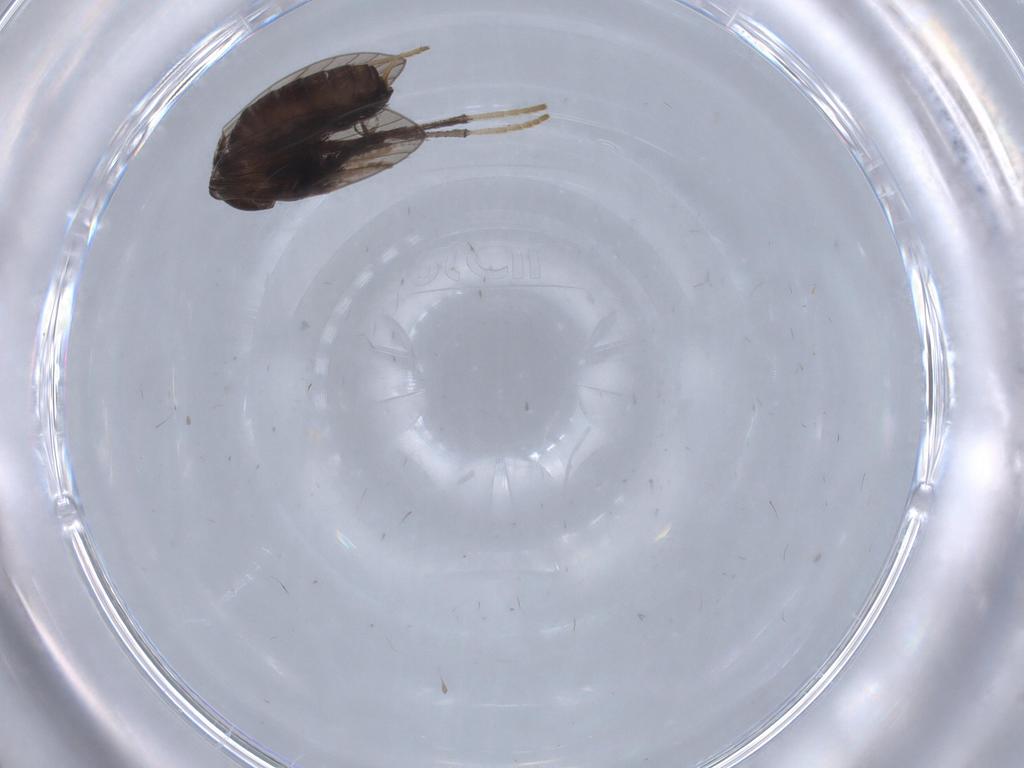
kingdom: Animalia
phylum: Arthropoda
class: Insecta
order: Diptera
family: Psychodidae
